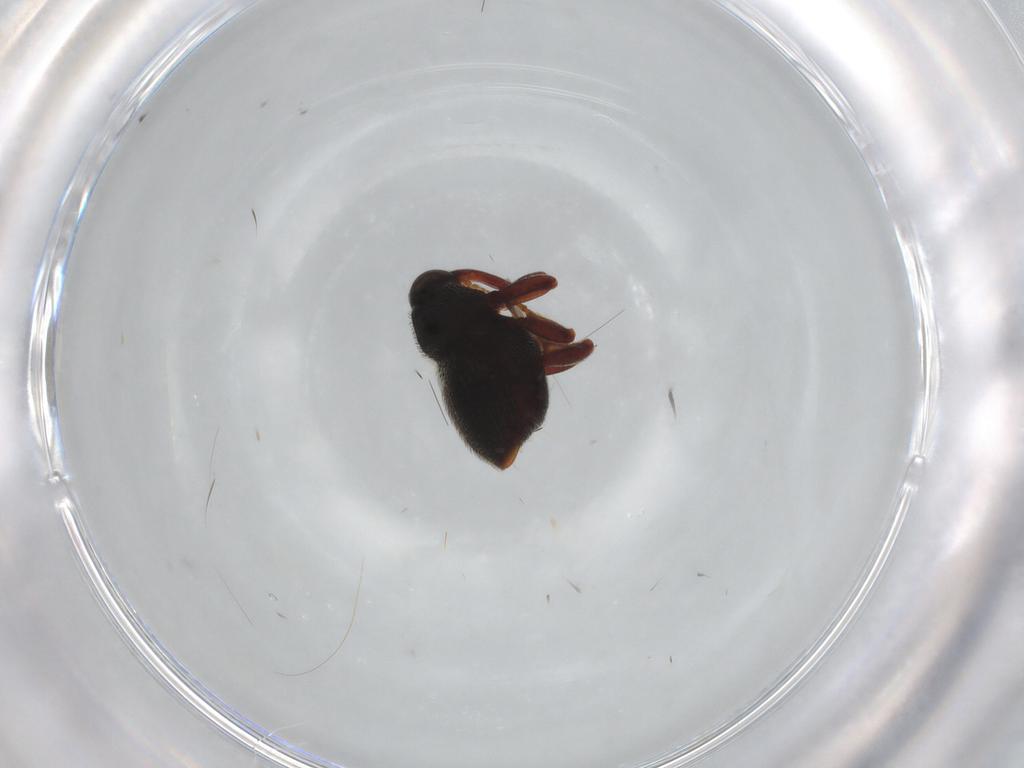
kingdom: Animalia
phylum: Arthropoda
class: Insecta
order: Coleoptera
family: Curculionidae
